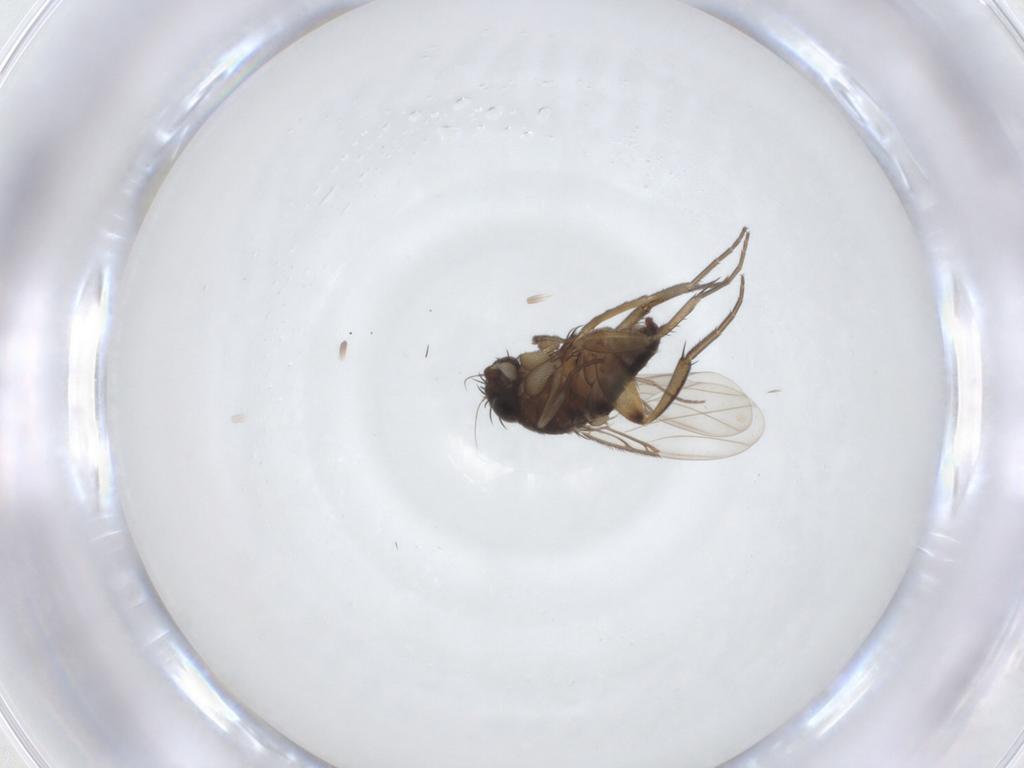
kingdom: Animalia
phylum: Arthropoda
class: Insecta
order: Diptera
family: Phoridae
